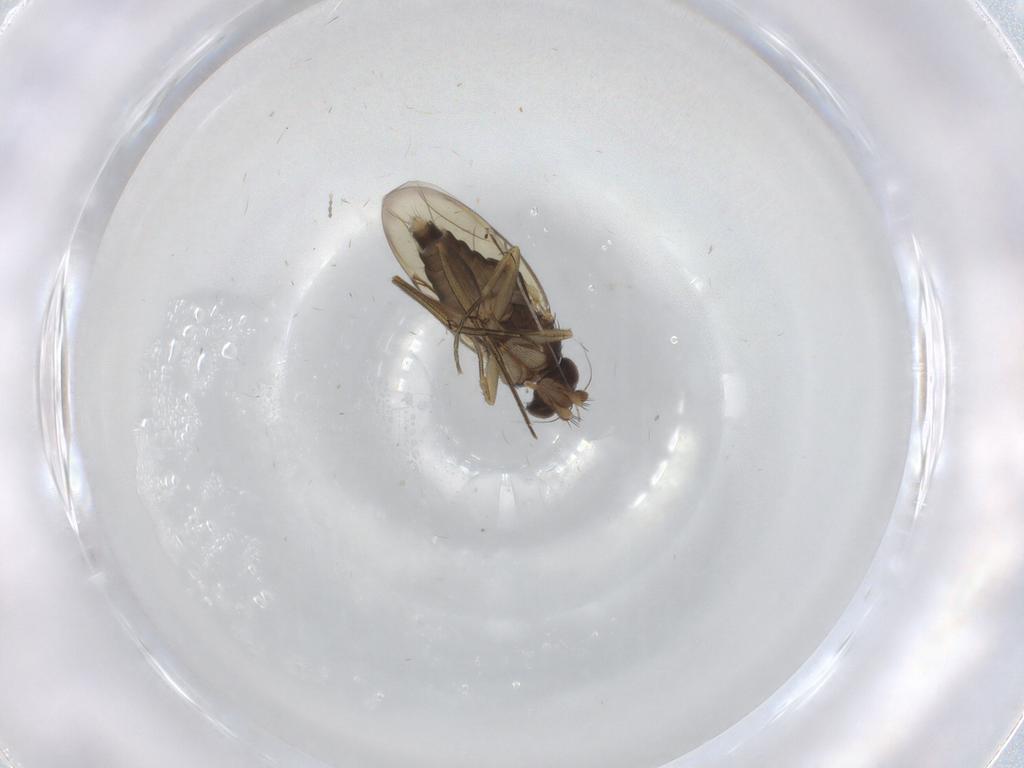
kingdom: Animalia
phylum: Arthropoda
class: Insecta
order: Diptera
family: Phoridae
